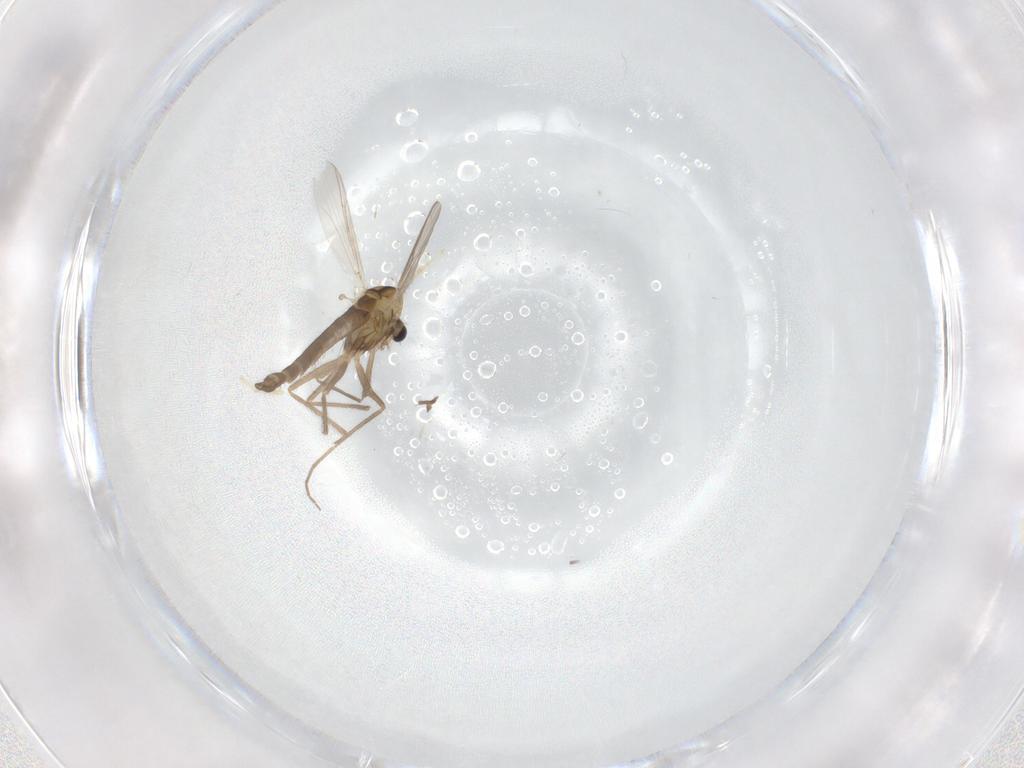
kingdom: Animalia
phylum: Arthropoda
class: Insecta
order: Diptera
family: Chironomidae
